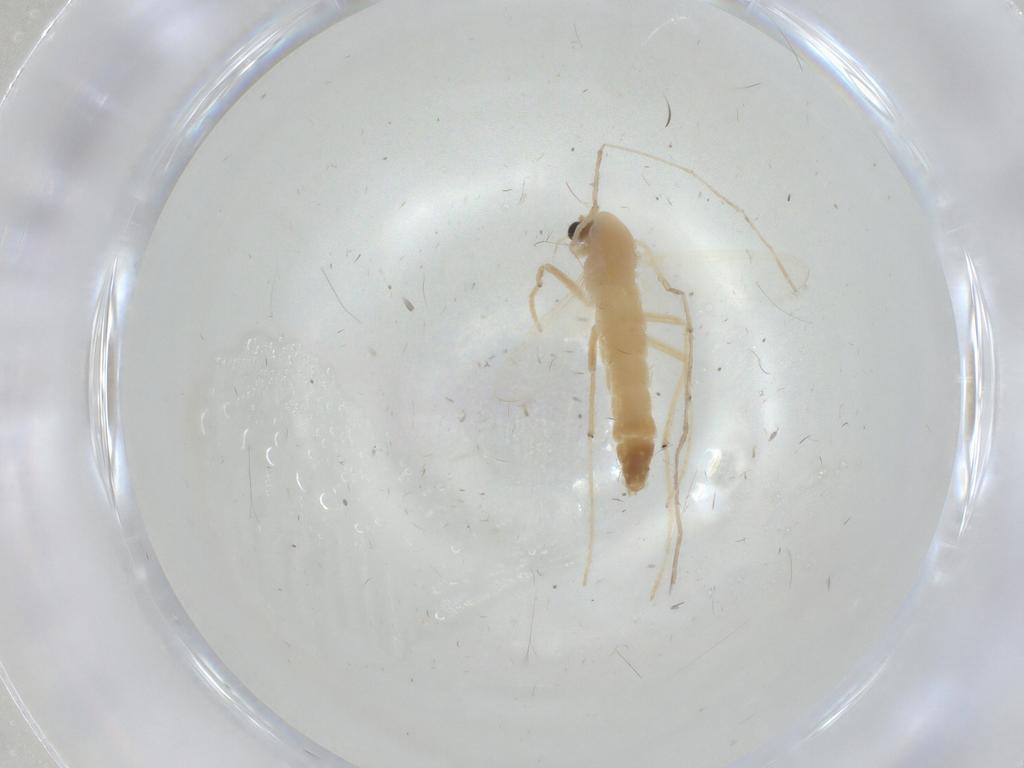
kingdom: Animalia
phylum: Arthropoda
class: Insecta
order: Diptera
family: Chironomidae
